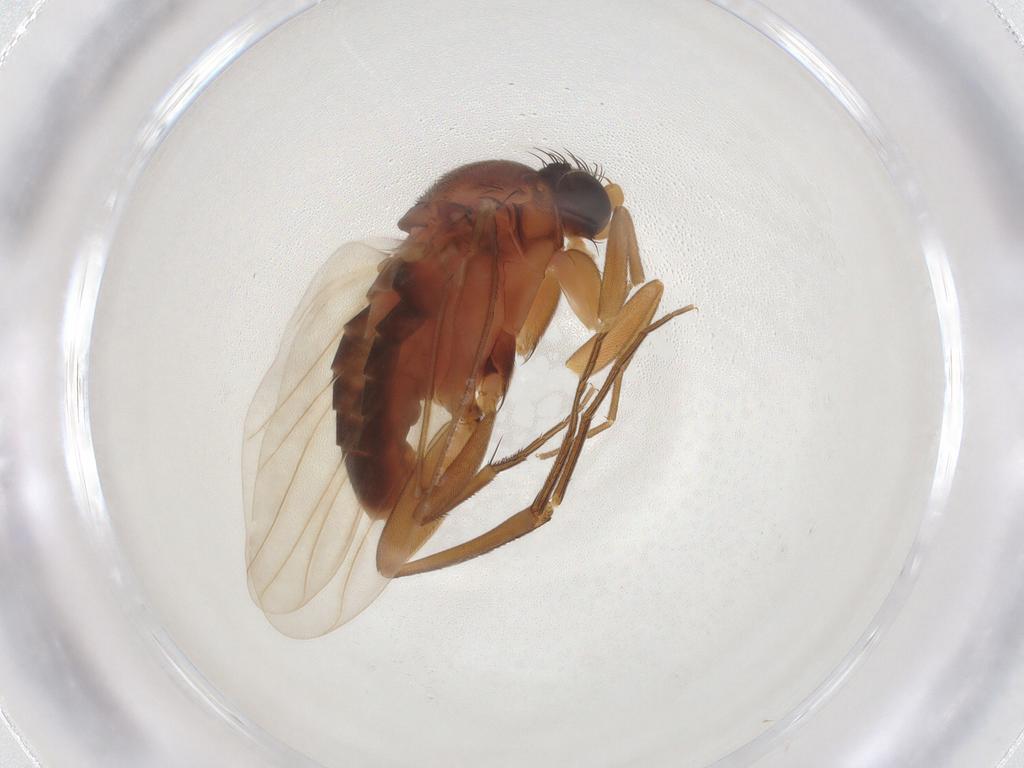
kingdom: Animalia
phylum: Arthropoda
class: Insecta
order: Diptera
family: Phoridae
